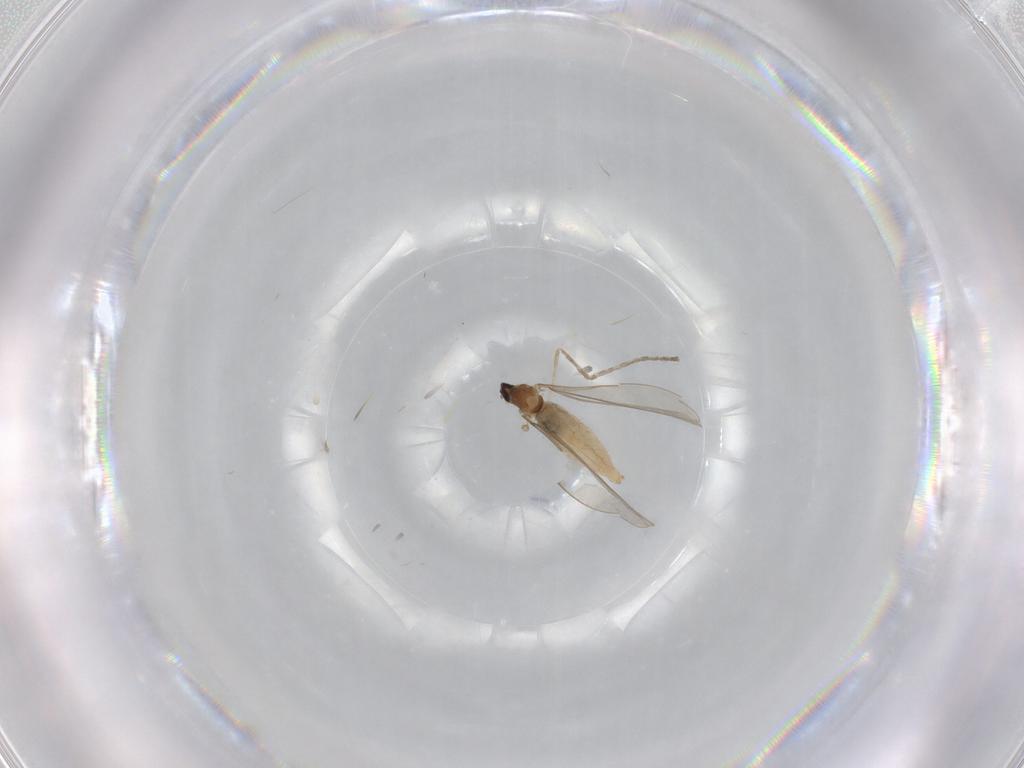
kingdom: Animalia
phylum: Arthropoda
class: Insecta
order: Diptera
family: Cecidomyiidae
